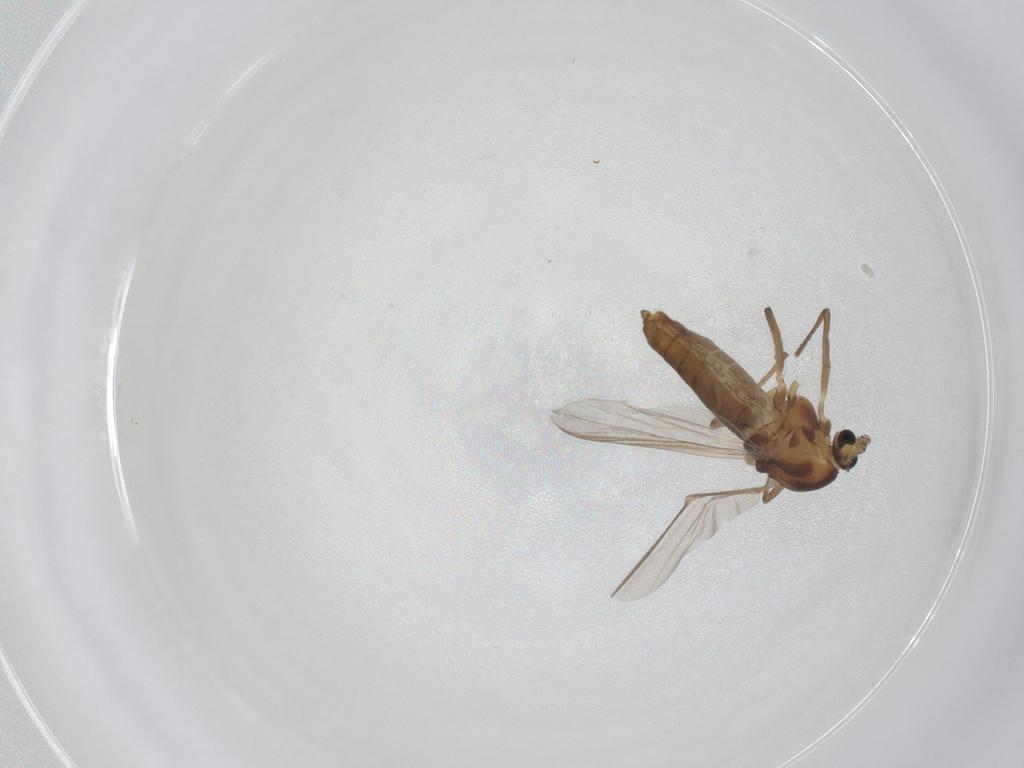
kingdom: Animalia
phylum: Arthropoda
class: Insecta
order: Diptera
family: Chironomidae
